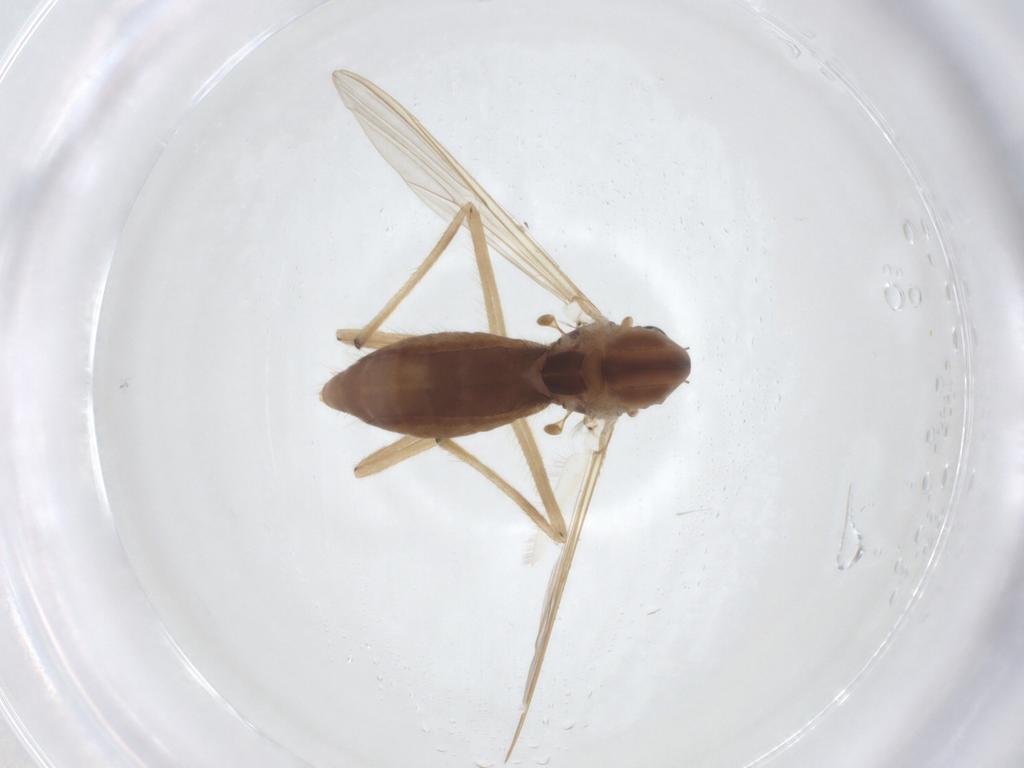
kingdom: Animalia
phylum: Arthropoda
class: Insecta
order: Diptera
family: Chironomidae
